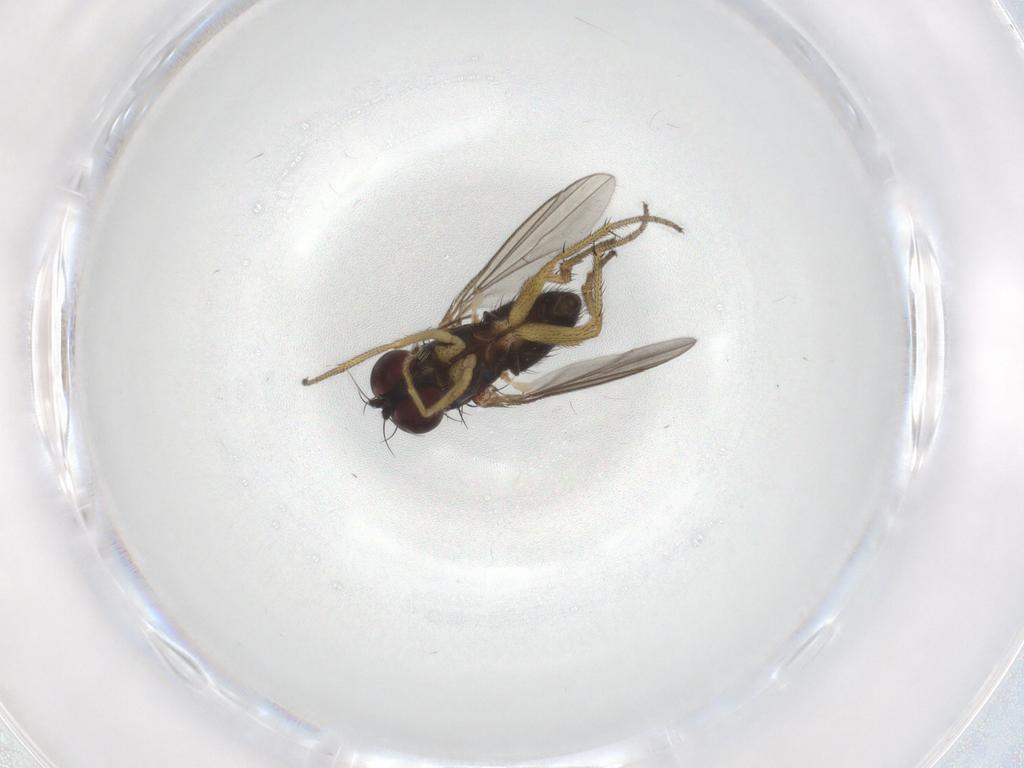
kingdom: Animalia
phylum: Arthropoda
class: Insecta
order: Diptera
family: Dolichopodidae
